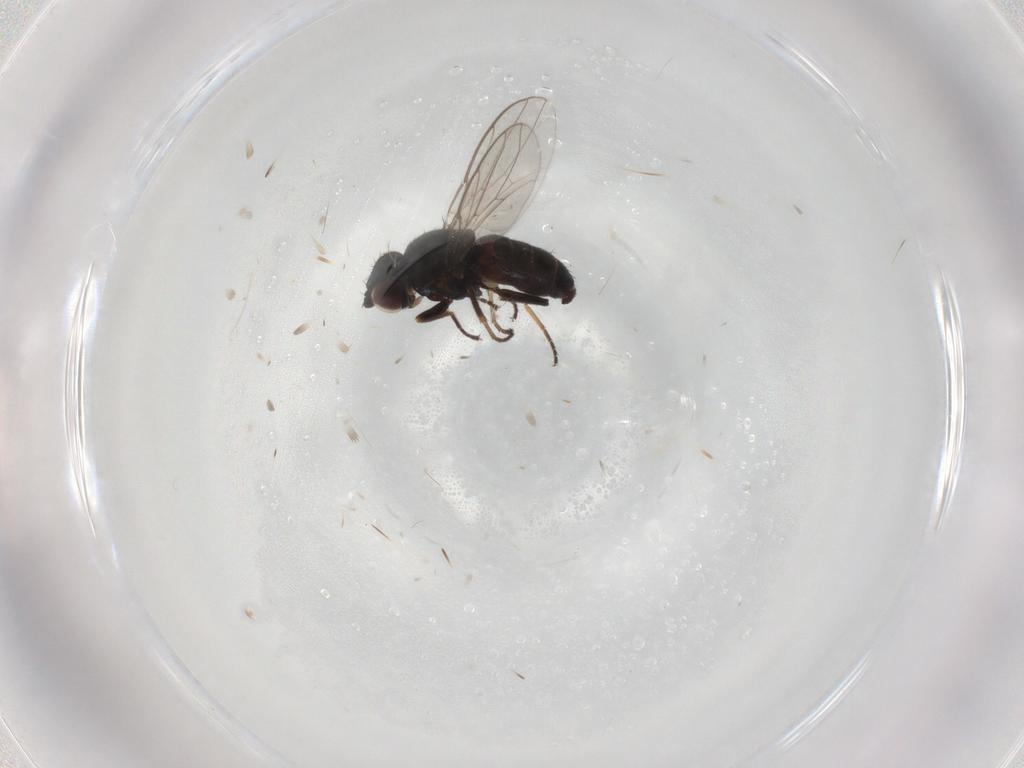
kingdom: Animalia
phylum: Arthropoda
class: Insecta
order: Diptera
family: Chloropidae
